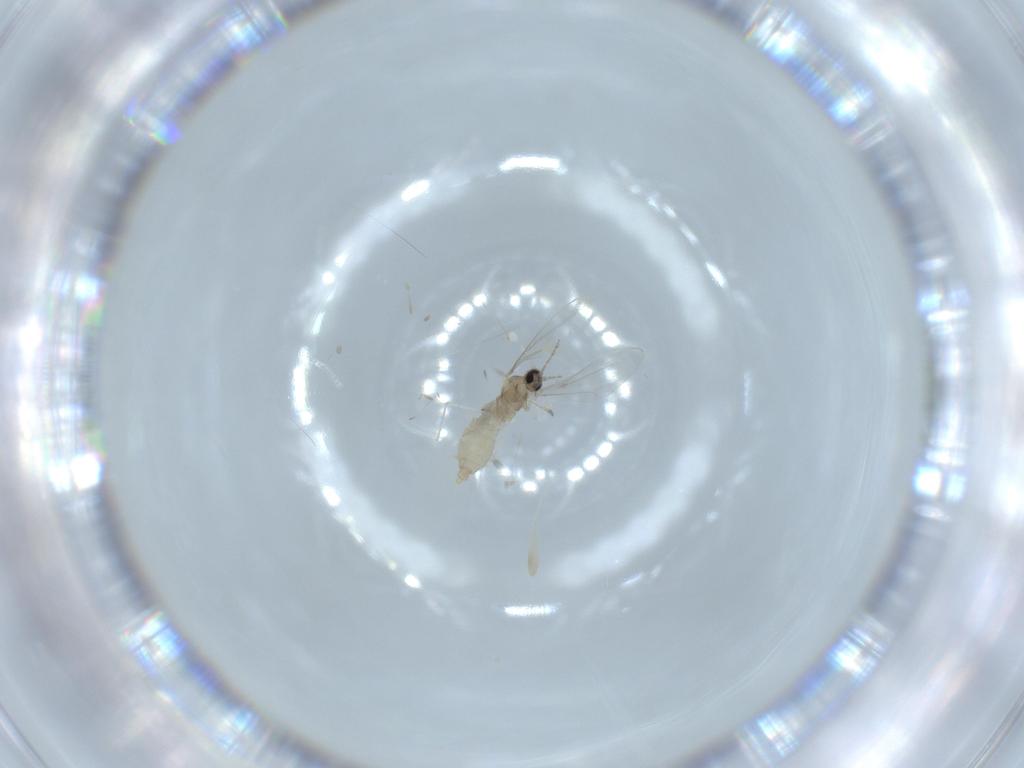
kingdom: Animalia
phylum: Arthropoda
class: Insecta
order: Diptera
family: Cecidomyiidae
